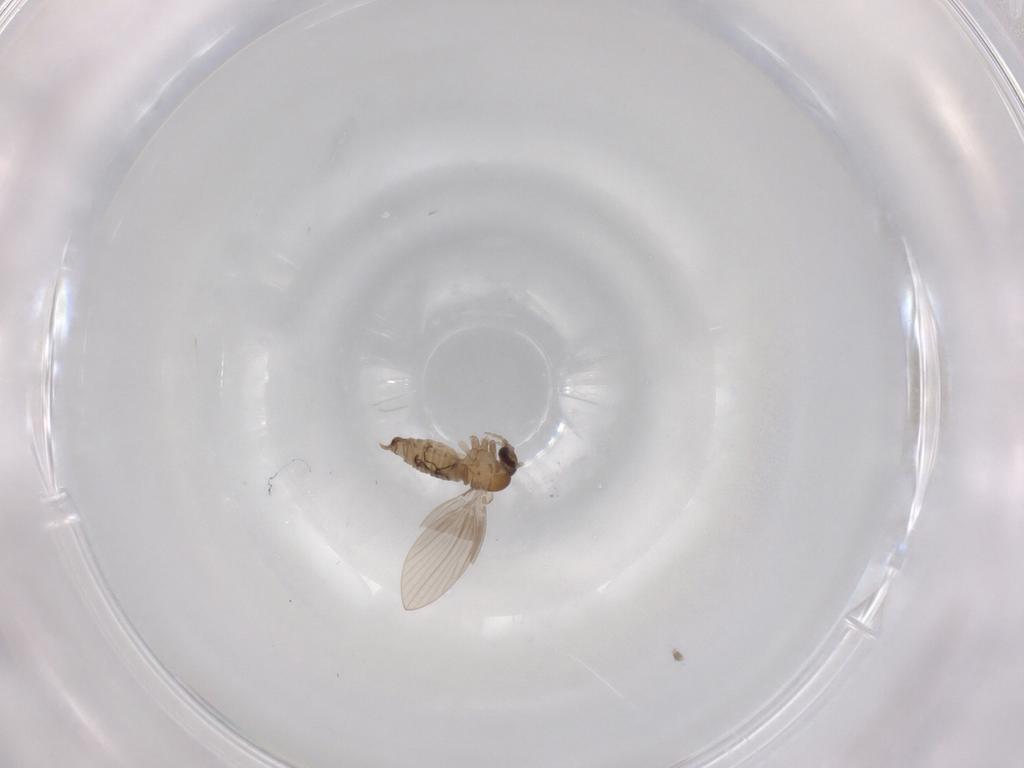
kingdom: Animalia
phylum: Arthropoda
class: Insecta
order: Diptera
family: Psychodidae
